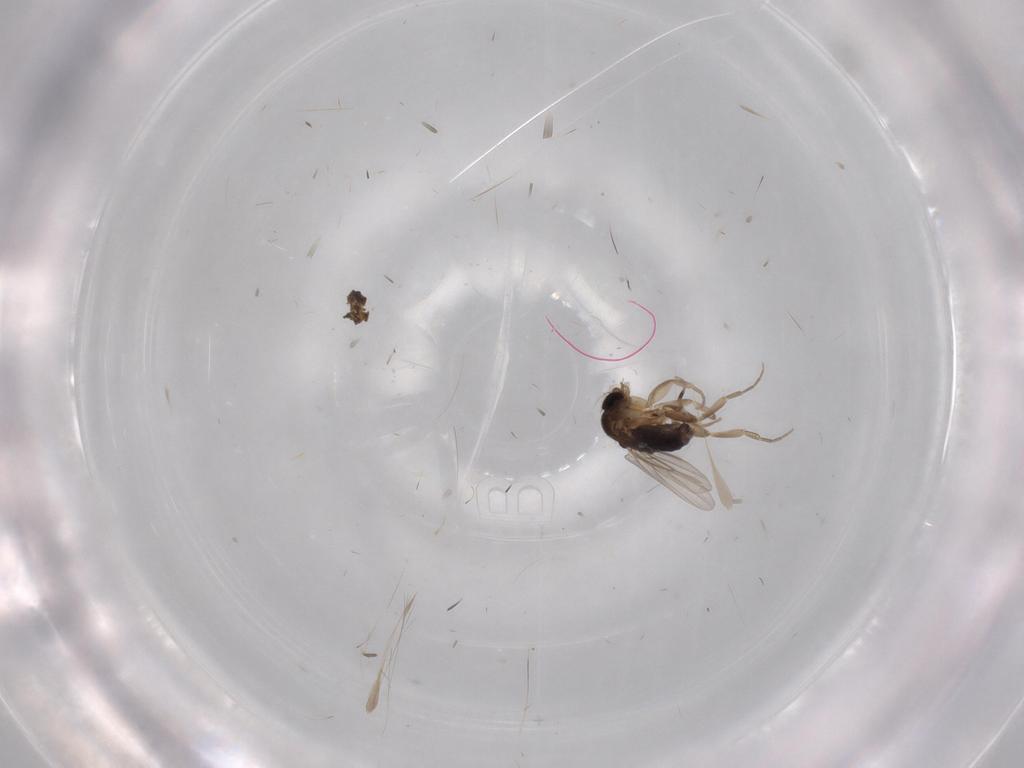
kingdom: Animalia
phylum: Arthropoda
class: Insecta
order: Diptera
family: Phoridae
